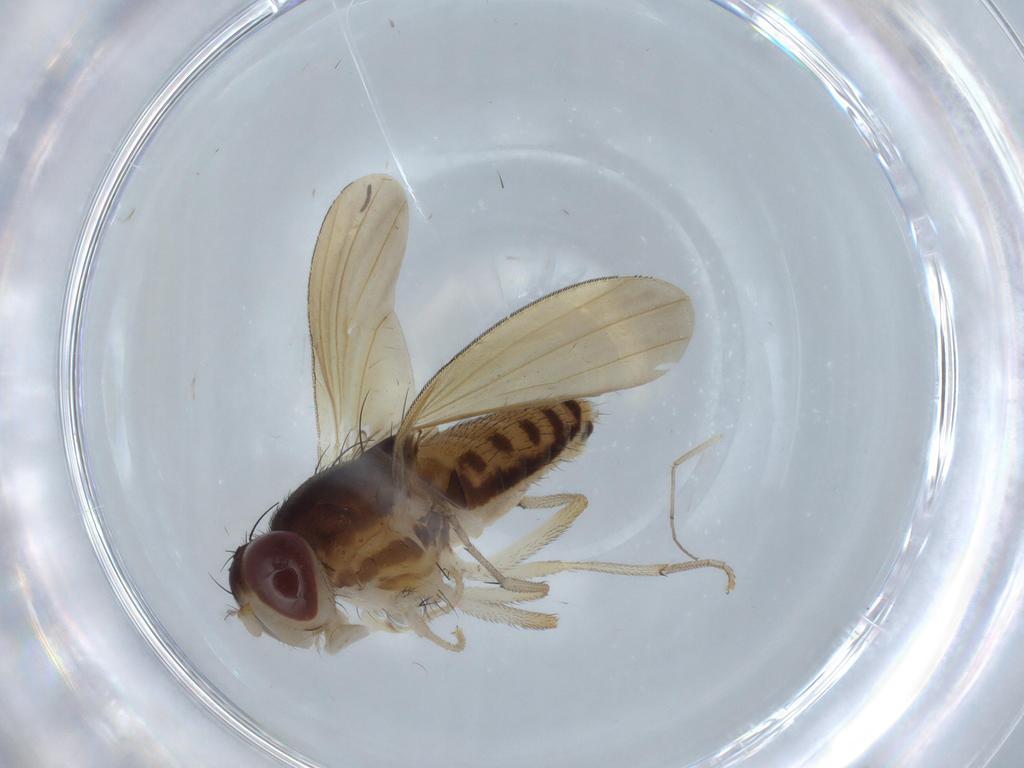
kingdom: Animalia
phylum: Arthropoda
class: Insecta
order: Diptera
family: Cecidomyiidae
